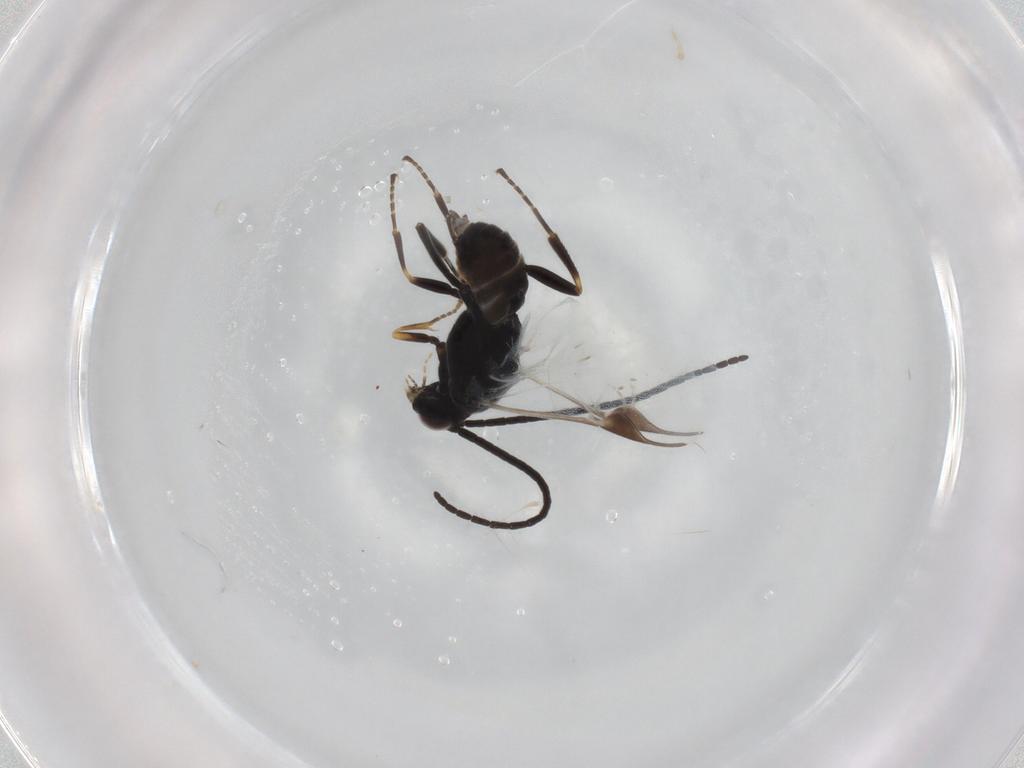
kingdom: Animalia
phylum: Arthropoda
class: Insecta
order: Hymenoptera
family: Braconidae
